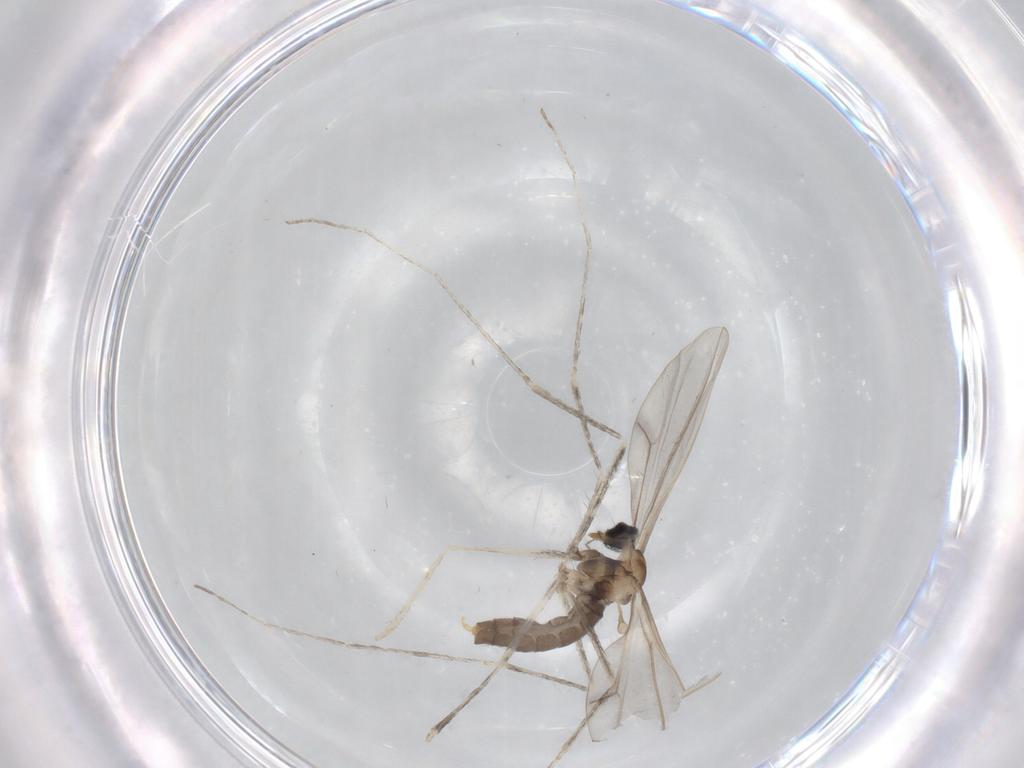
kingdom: Animalia
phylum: Arthropoda
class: Insecta
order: Diptera
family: Cecidomyiidae
